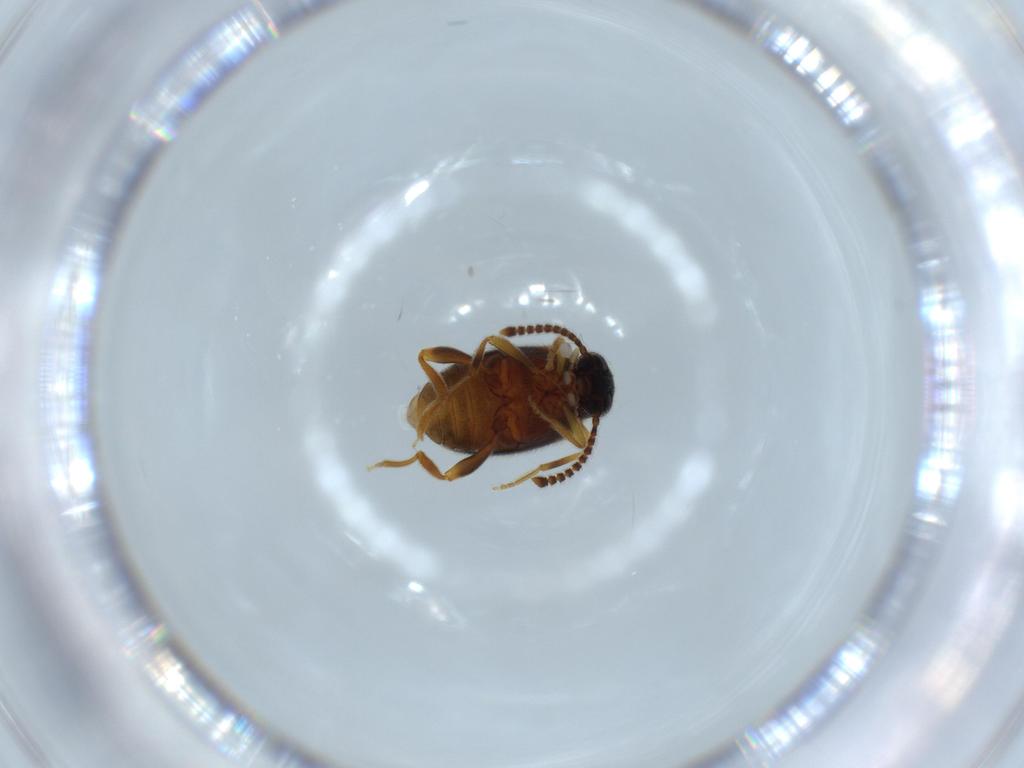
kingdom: Animalia
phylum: Arthropoda
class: Insecta
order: Coleoptera
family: Aderidae
